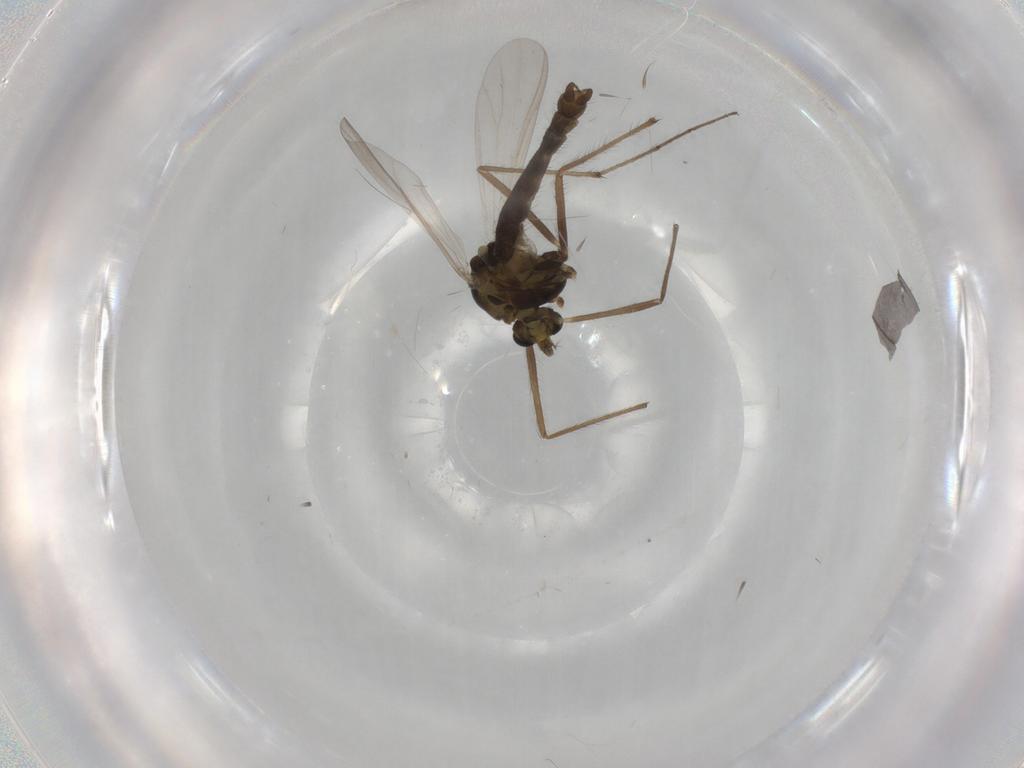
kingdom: Animalia
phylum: Arthropoda
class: Insecta
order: Diptera
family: Chironomidae
